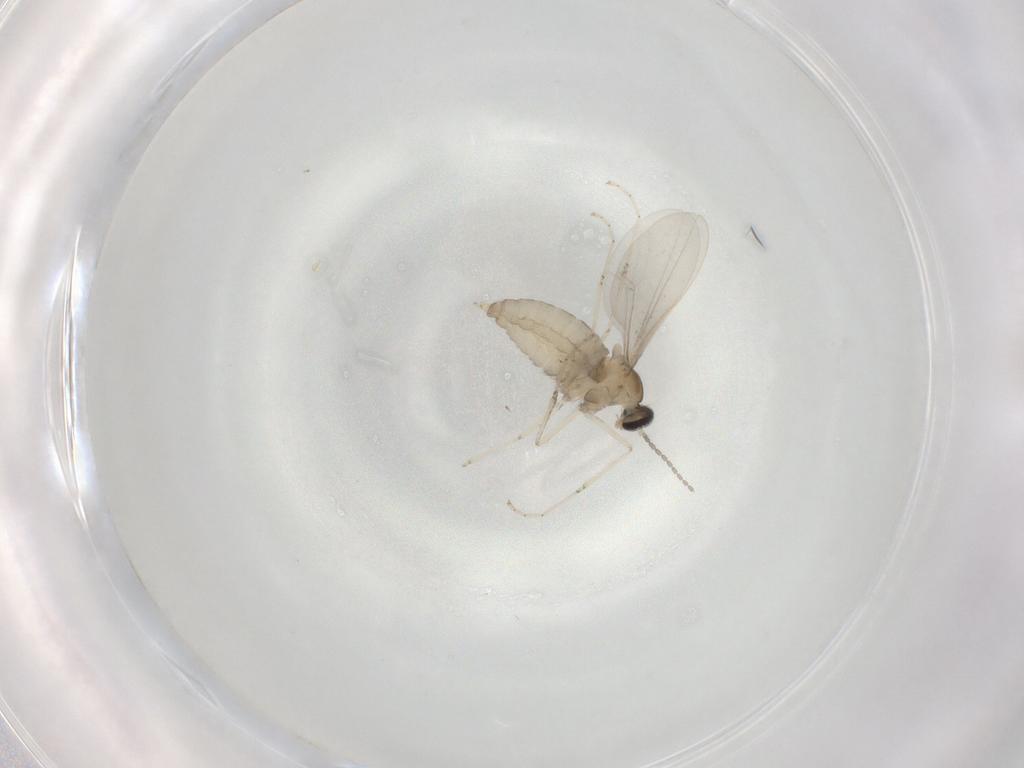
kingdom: Animalia
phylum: Arthropoda
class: Insecta
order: Diptera
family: Cecidomyiidae
